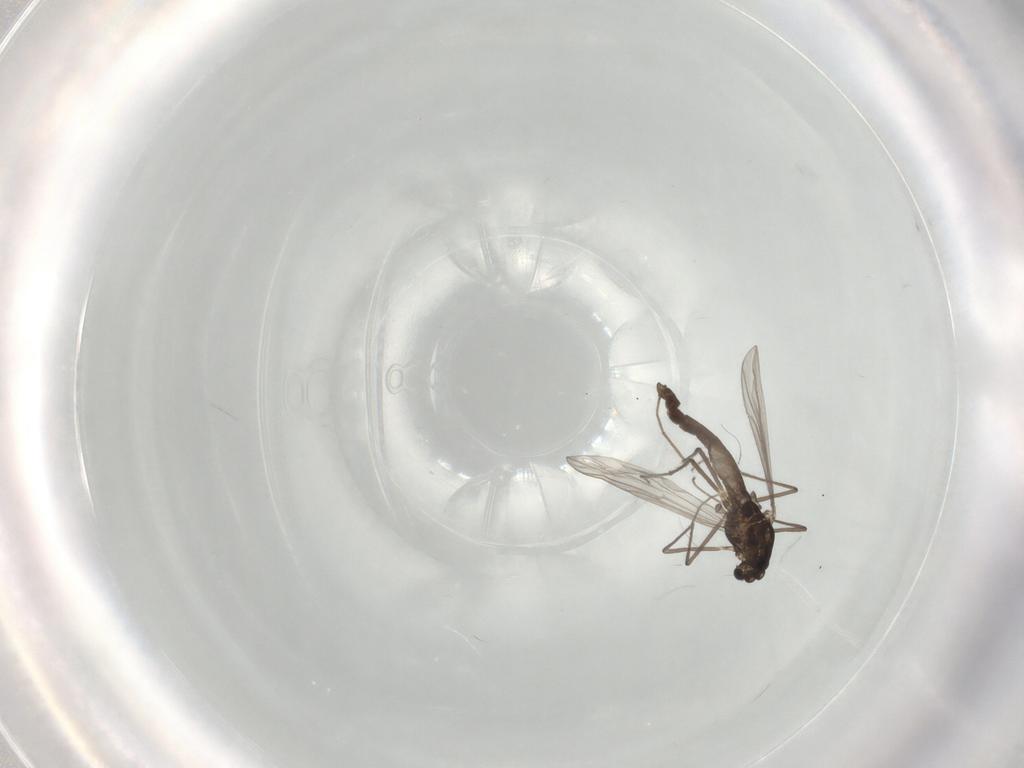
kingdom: Animalia
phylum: Arthropoda
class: Insecta
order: Diptera
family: Chironomidae
